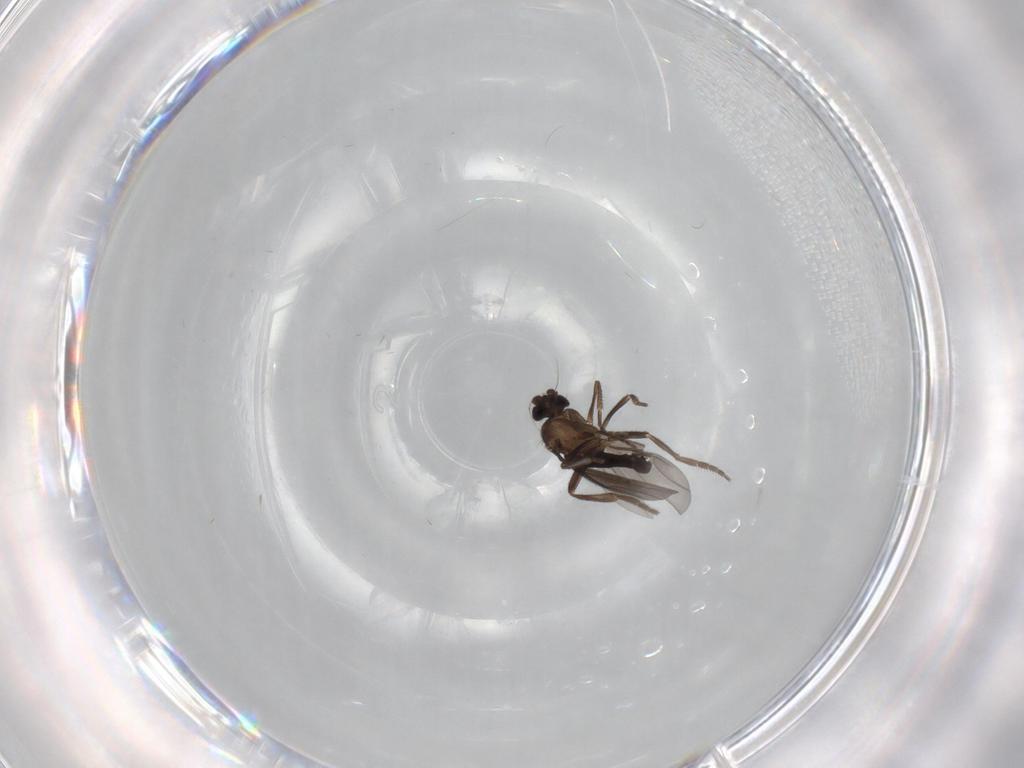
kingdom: Animalia
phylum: Arthropoda
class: Insecta
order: Diptera
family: Phoridae
